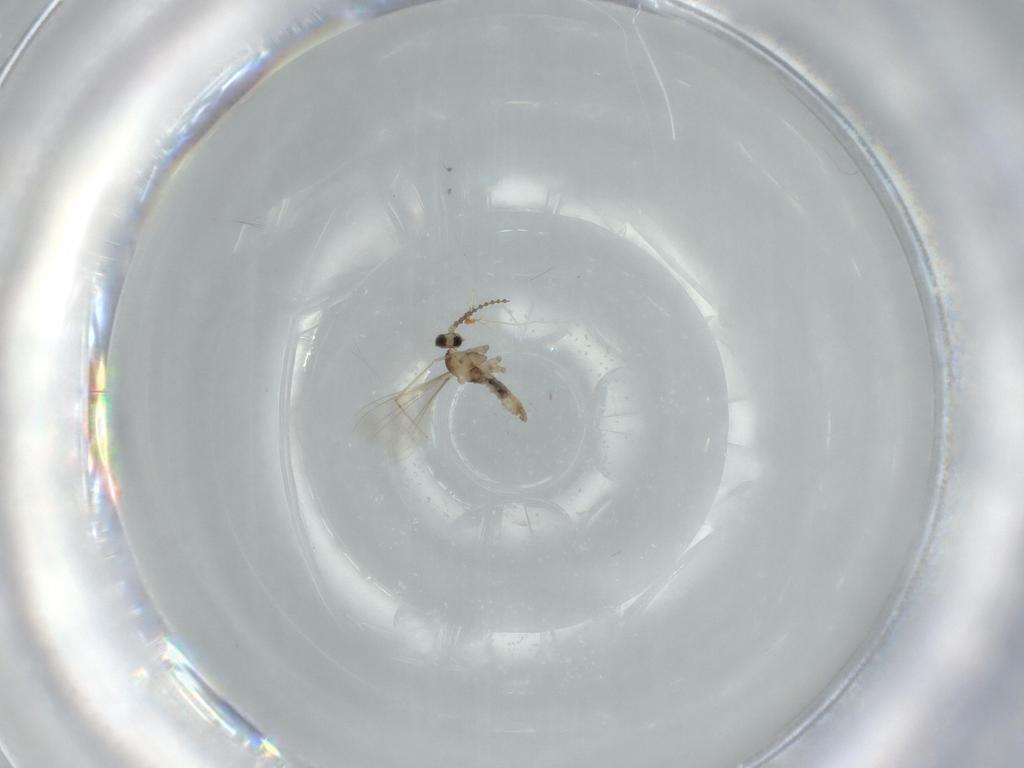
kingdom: Animalia
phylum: Arthropoda
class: Insecta
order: Diptera
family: Cecidomyiidae
